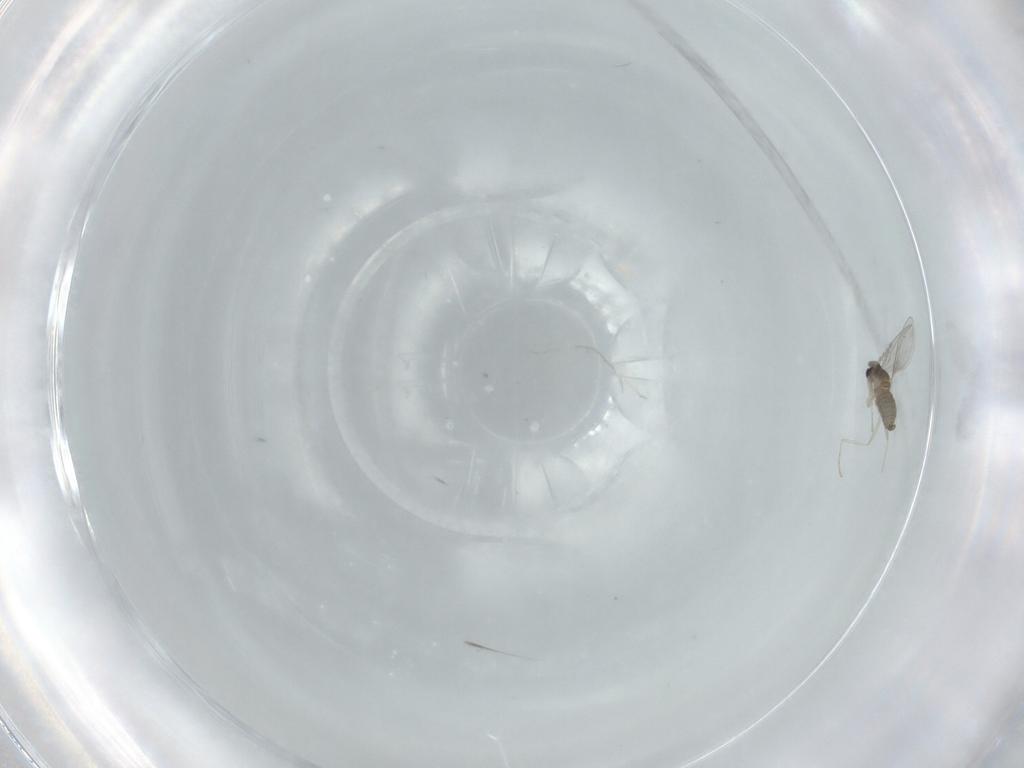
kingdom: Animalia
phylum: Arthropoda
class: Insecta
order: Diptera
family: Cecidomyiidae
